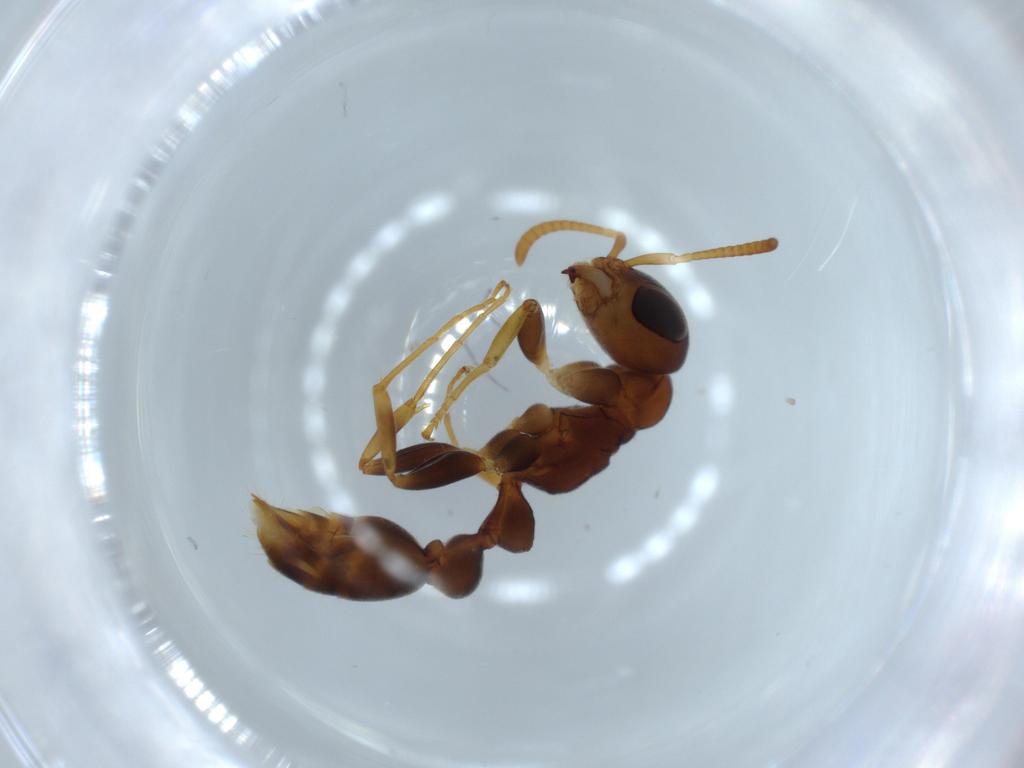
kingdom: Animalia
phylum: Arthropoda
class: Insecta
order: Hymenoptera
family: Formicidae
